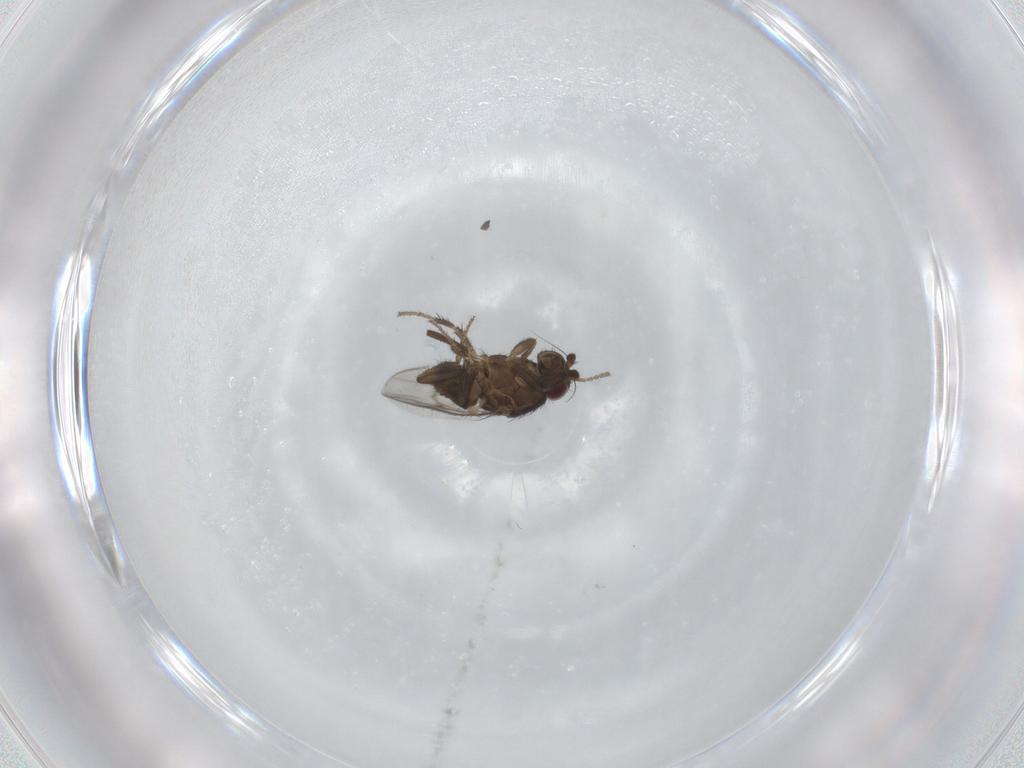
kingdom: Animalia
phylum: Arthropoda
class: Insecta
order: Diptera
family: Sphaeroceridae
